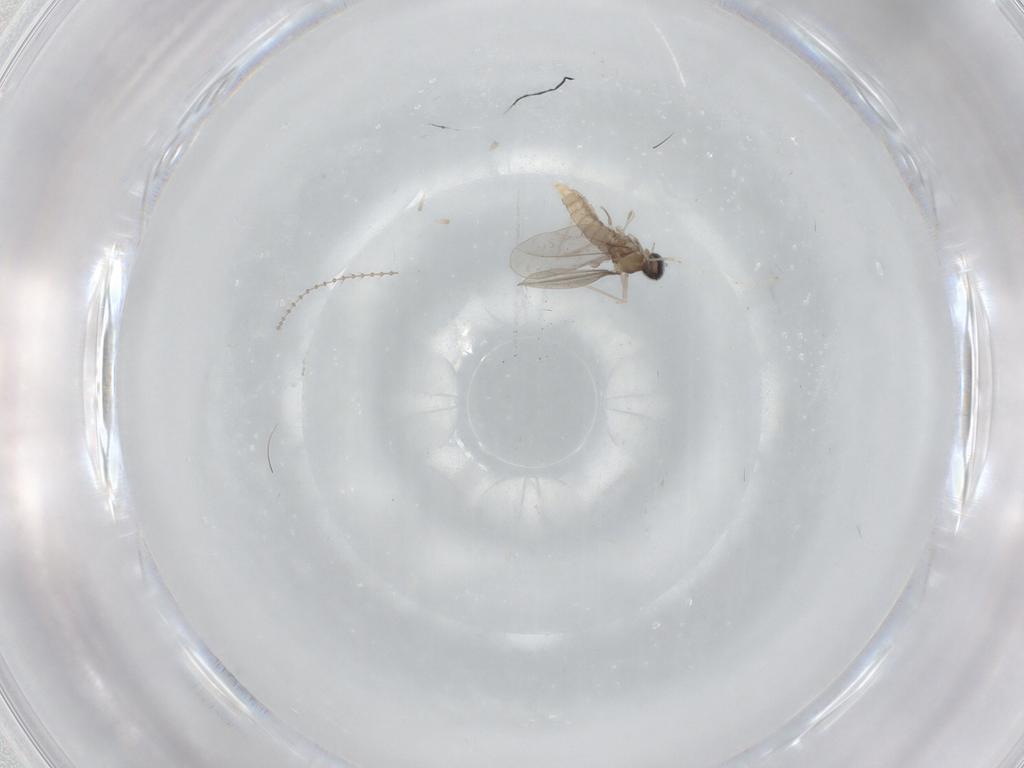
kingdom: Animalia
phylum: Arthropoda
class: Insecta
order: Diptera
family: Cecidomyiidae
